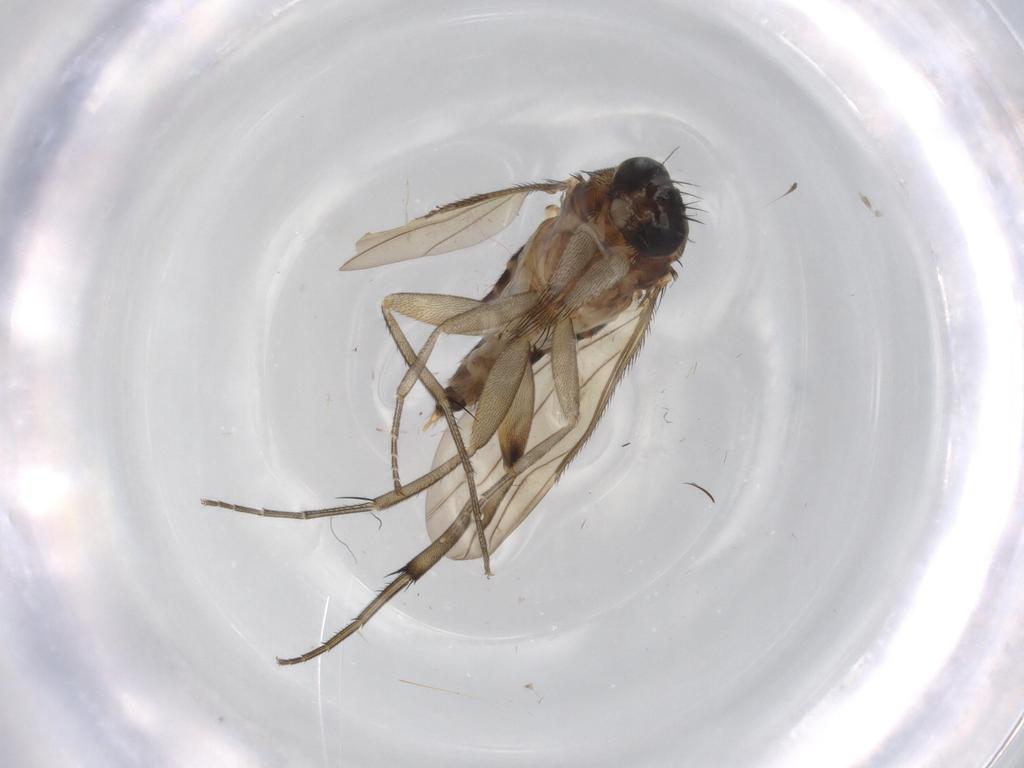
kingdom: Animalia
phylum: Arthropoda
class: Insecta
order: Diptera
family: Phoridae
